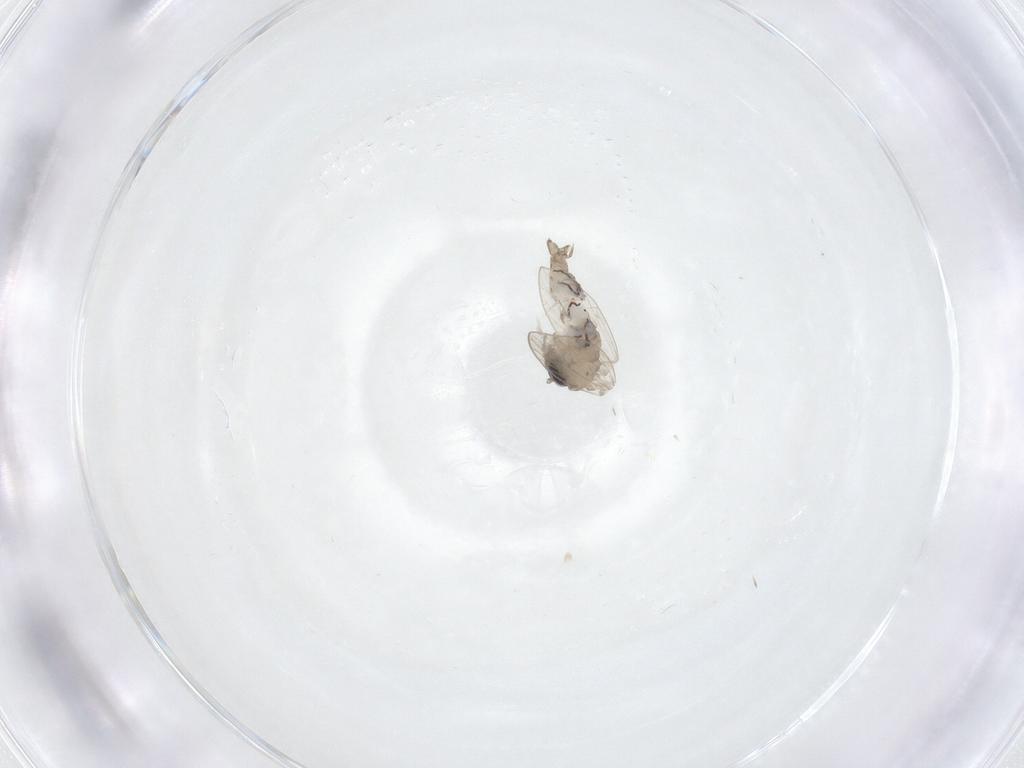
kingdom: Animalia
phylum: Arthropoda
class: Insecta
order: Diptera
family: Psychodidae
